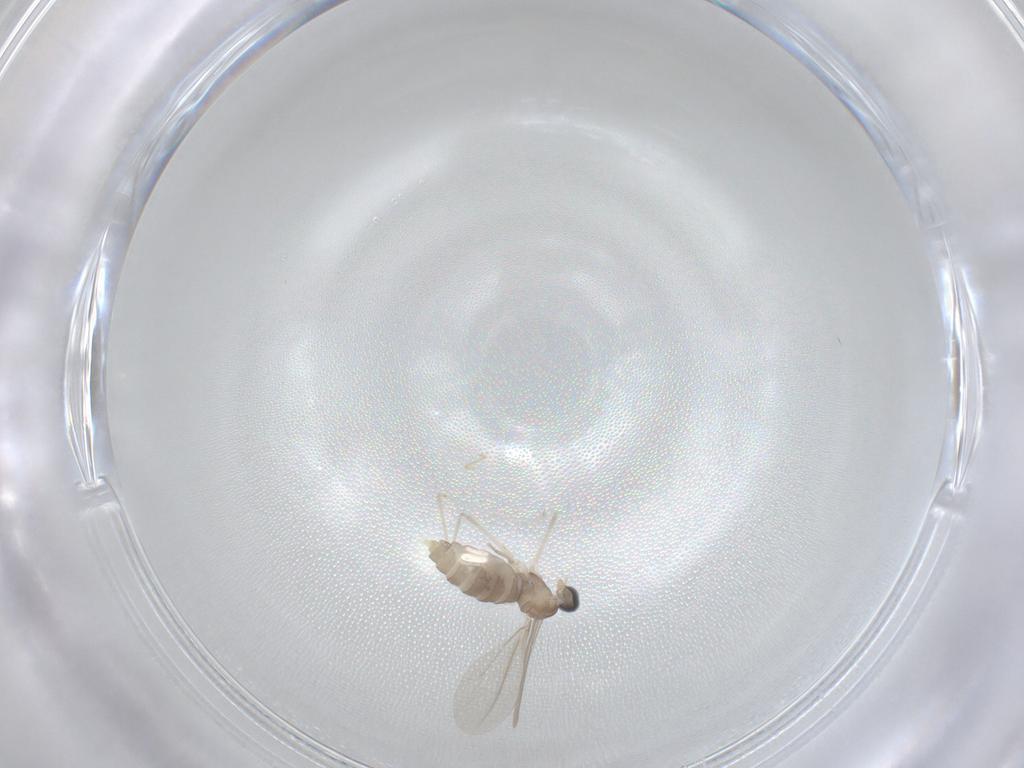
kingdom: Animalia
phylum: Arthropoda
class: Insecta
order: Diptera
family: Cecidomyiidae
